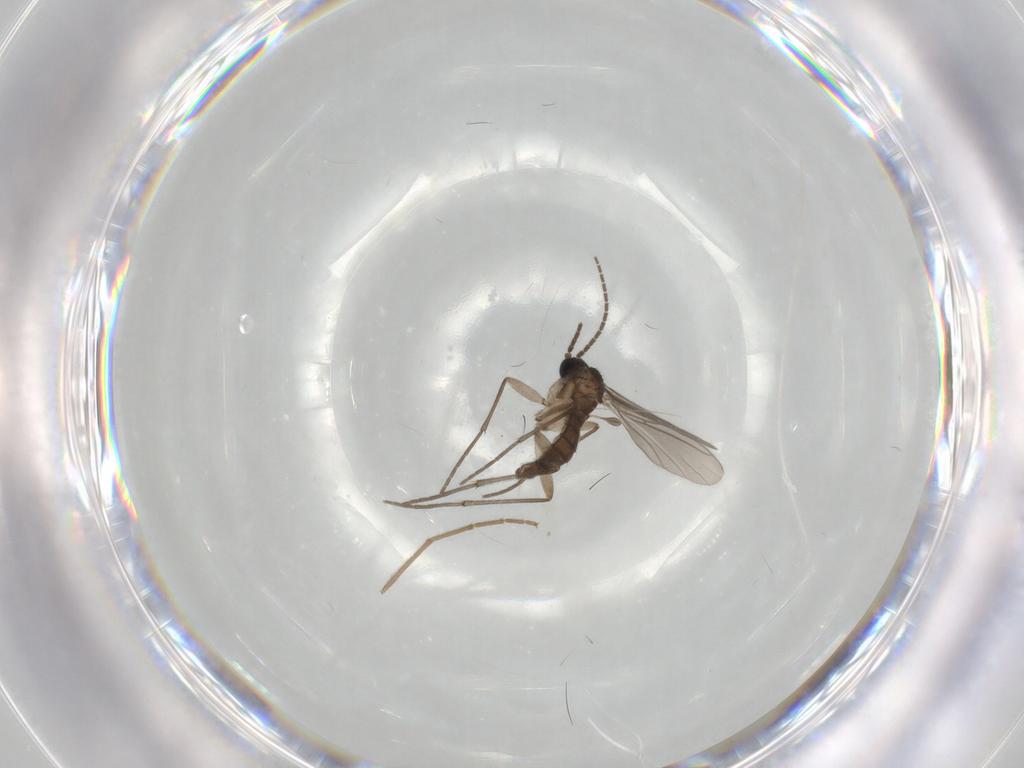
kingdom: Animalia
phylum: Arthropoda
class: Insecta
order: Diptera
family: Sciaridae
